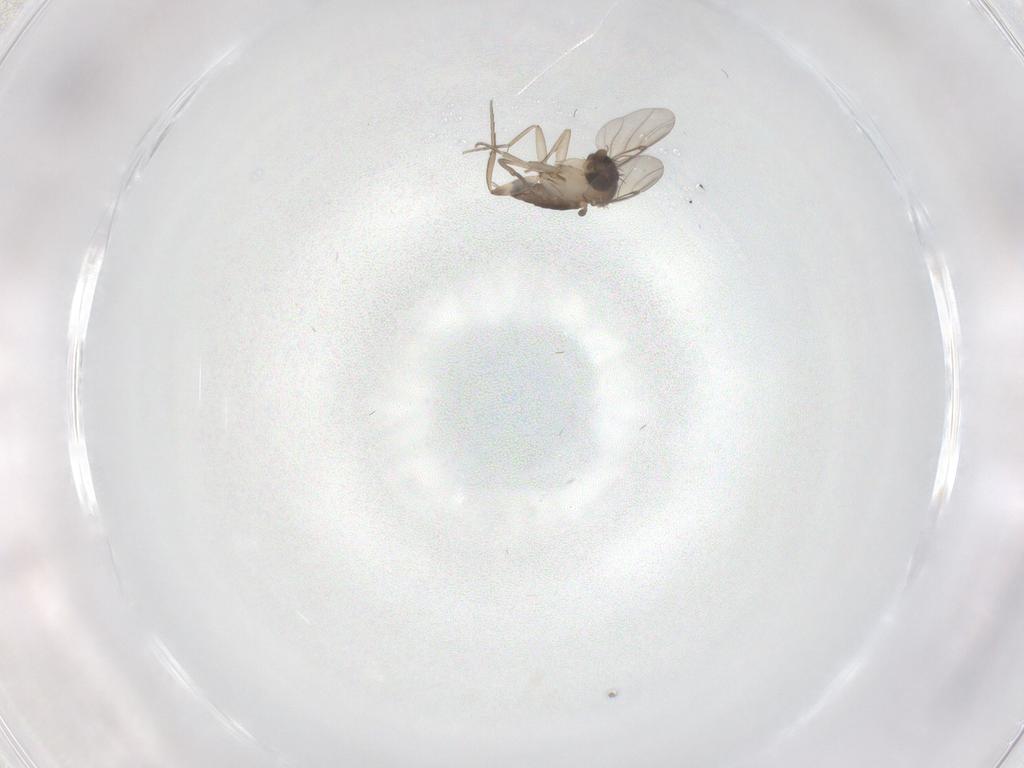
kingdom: Animalia
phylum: Arthropoda
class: Insecta
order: Diptera
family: Phoridae
